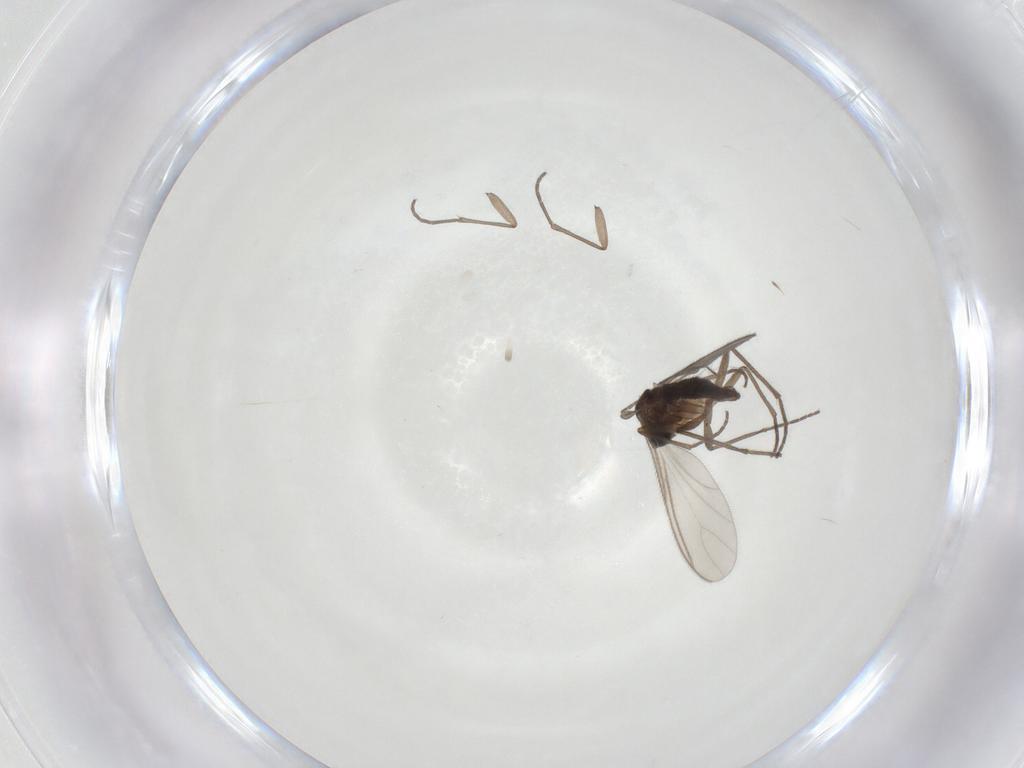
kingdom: Animalia
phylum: Arthropoda
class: Insecta
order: Diptera
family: Sciaridae
